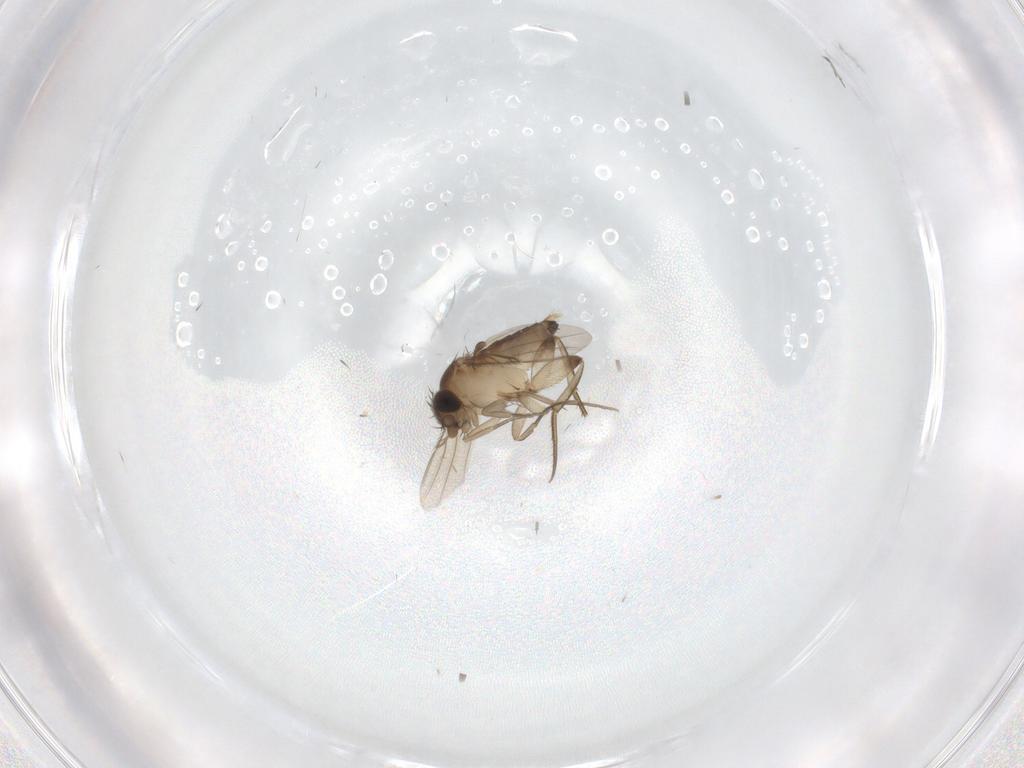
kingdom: Animalia
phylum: Arthropoda
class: Insecta
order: Diptera
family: Phoridae
